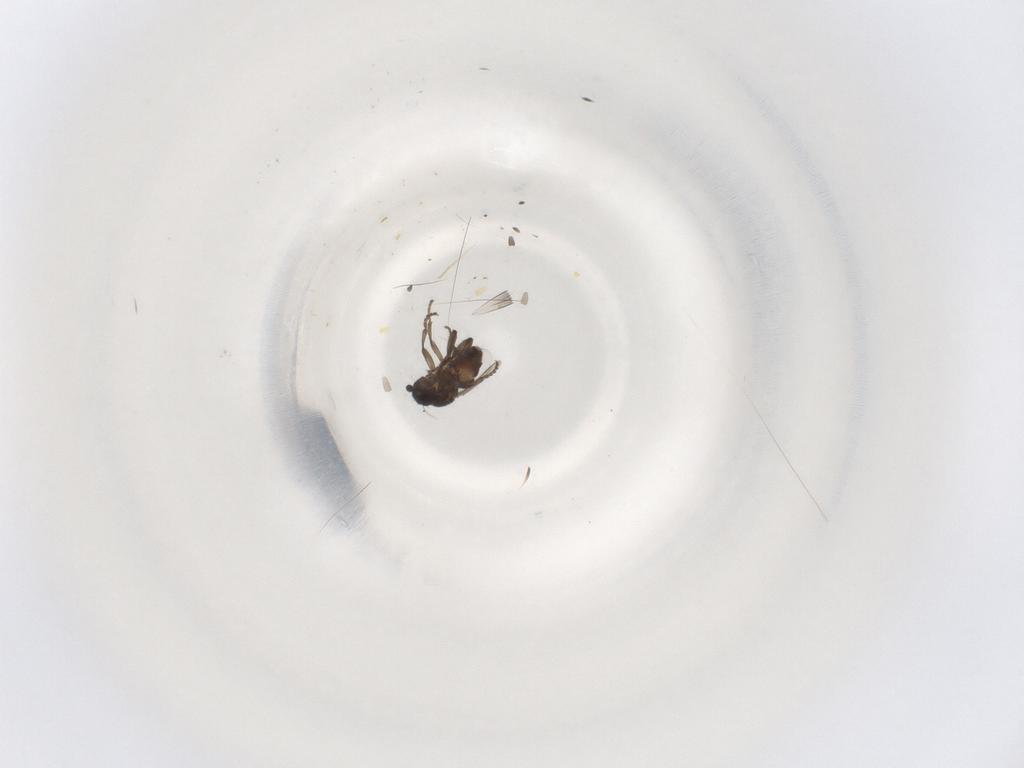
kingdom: Animalia
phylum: Arthropoda
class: Insecta
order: Diptera
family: Sphaeroceridae
